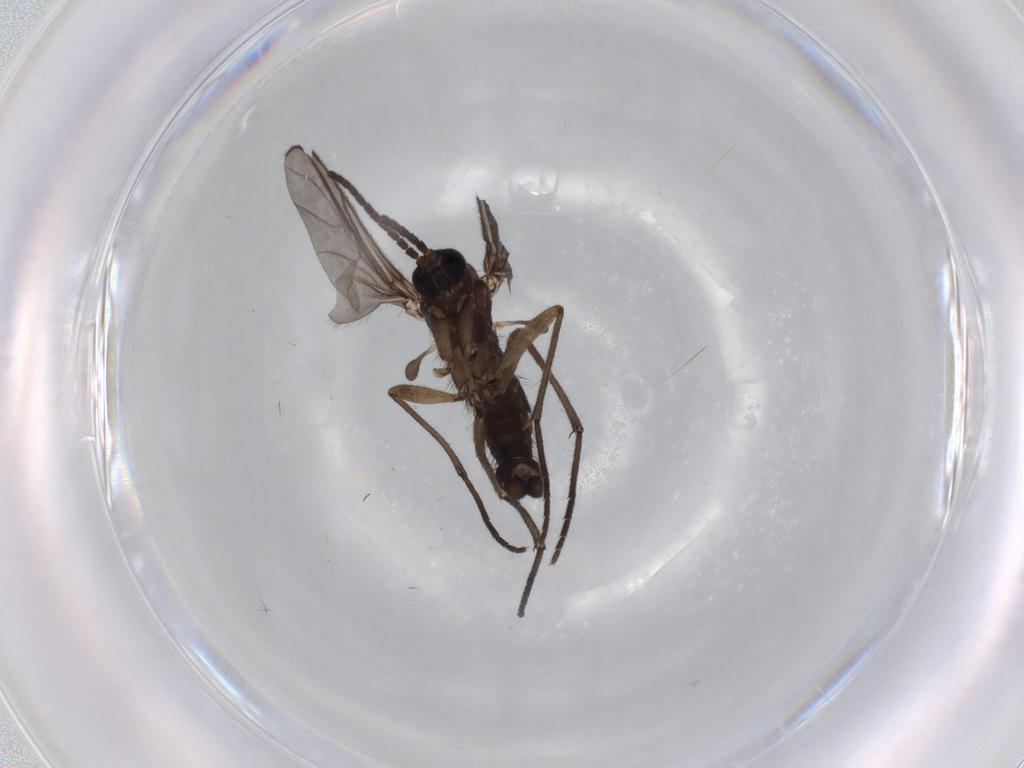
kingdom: Animalia
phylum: Arthropoda
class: Insecta
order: Diptera
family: Sciaridae
